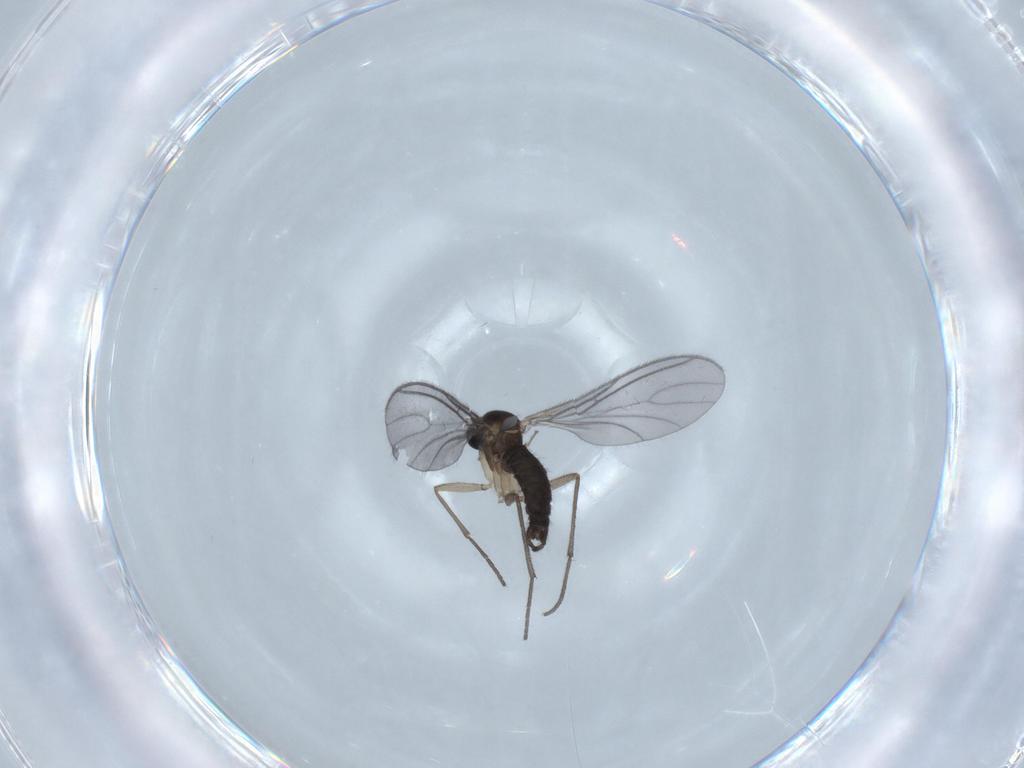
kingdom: Animalia
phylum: Arthropoda
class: Insecta
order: Diptera
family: Sciaridae
